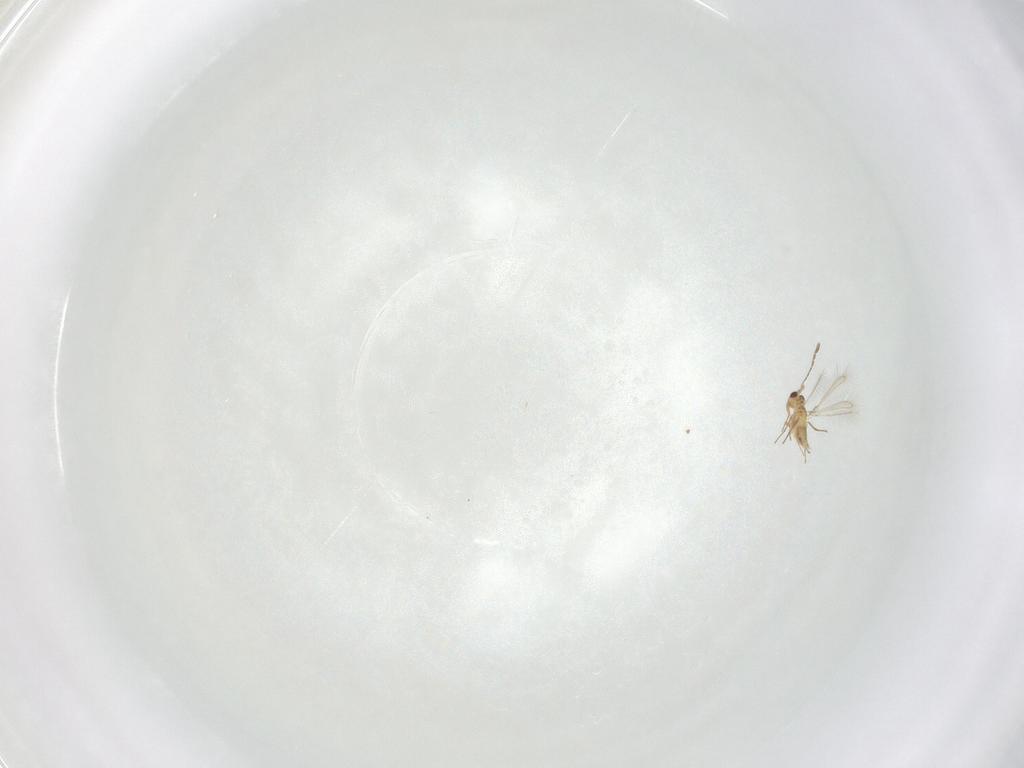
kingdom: Animalia
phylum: Arthropoda
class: Insecta
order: Hymenoptera
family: Mymaridae
